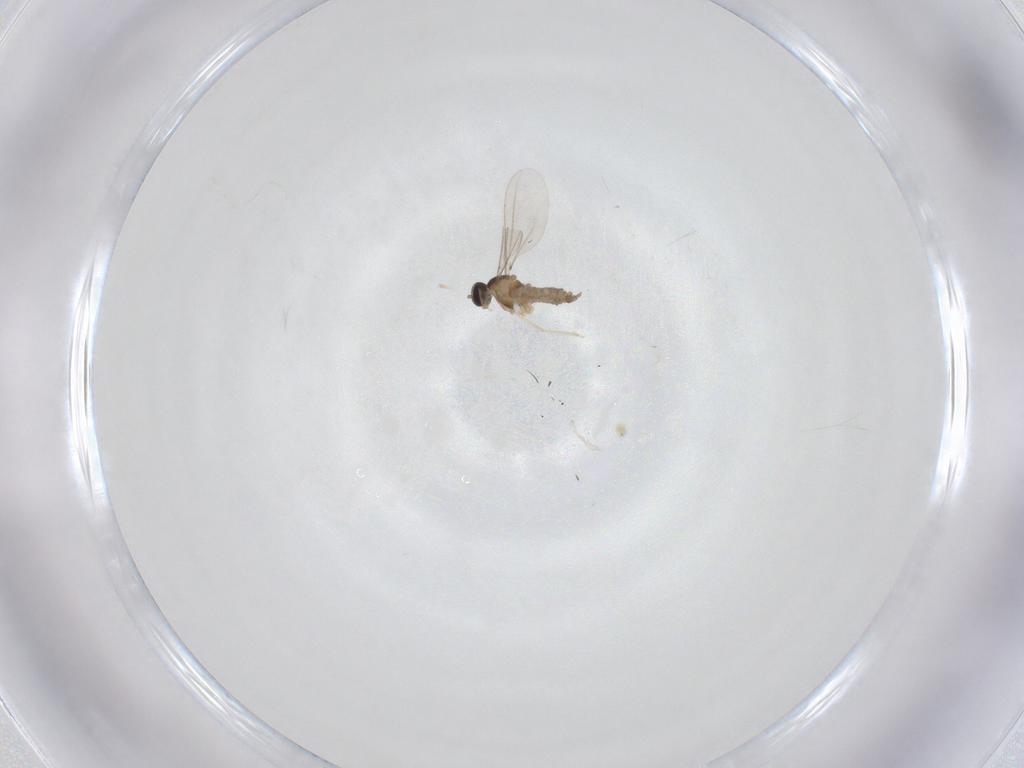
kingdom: Animalia
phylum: Arthropoda
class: Insecta
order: Diptera
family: Cecidomyiidae
